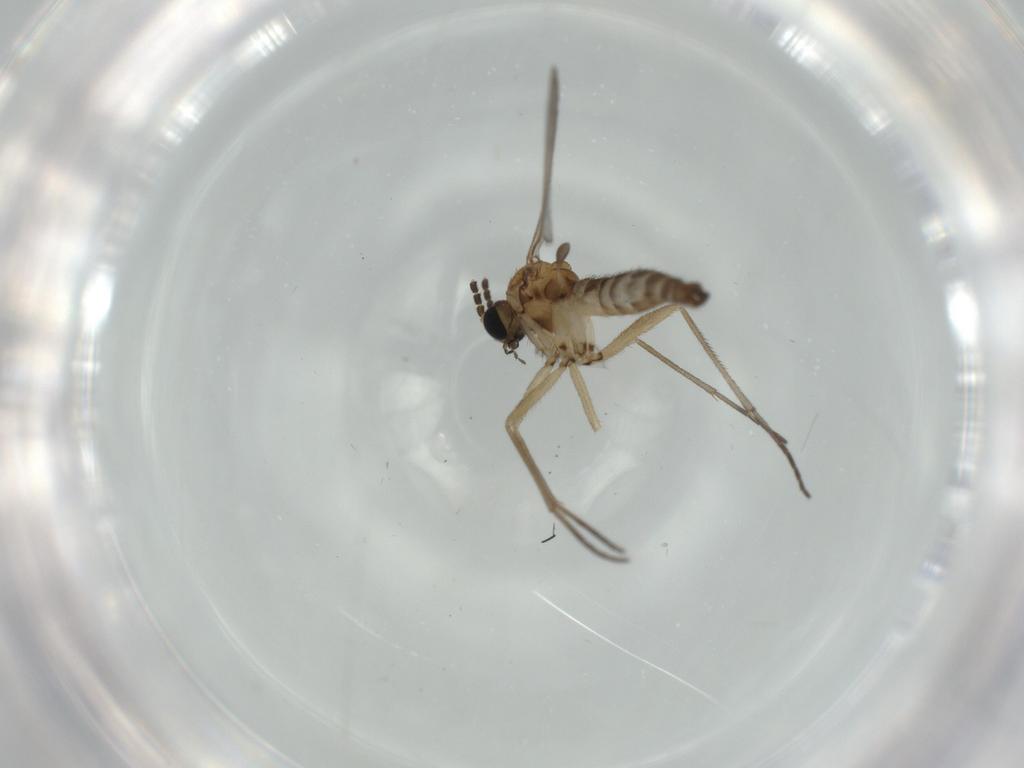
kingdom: Animalia
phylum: Arthropoda
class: Insecta
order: Diptera
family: Sciaridae
